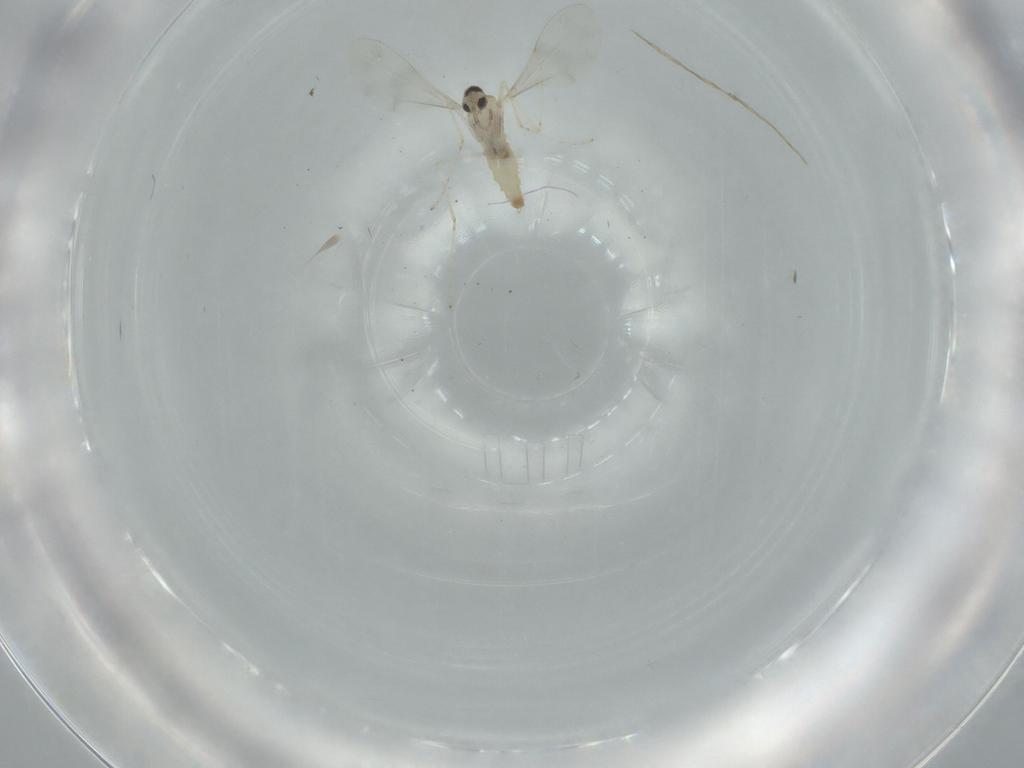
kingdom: Animalia
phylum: Arthropoda
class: Insecta
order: Diptera
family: Cecidomyiidae
